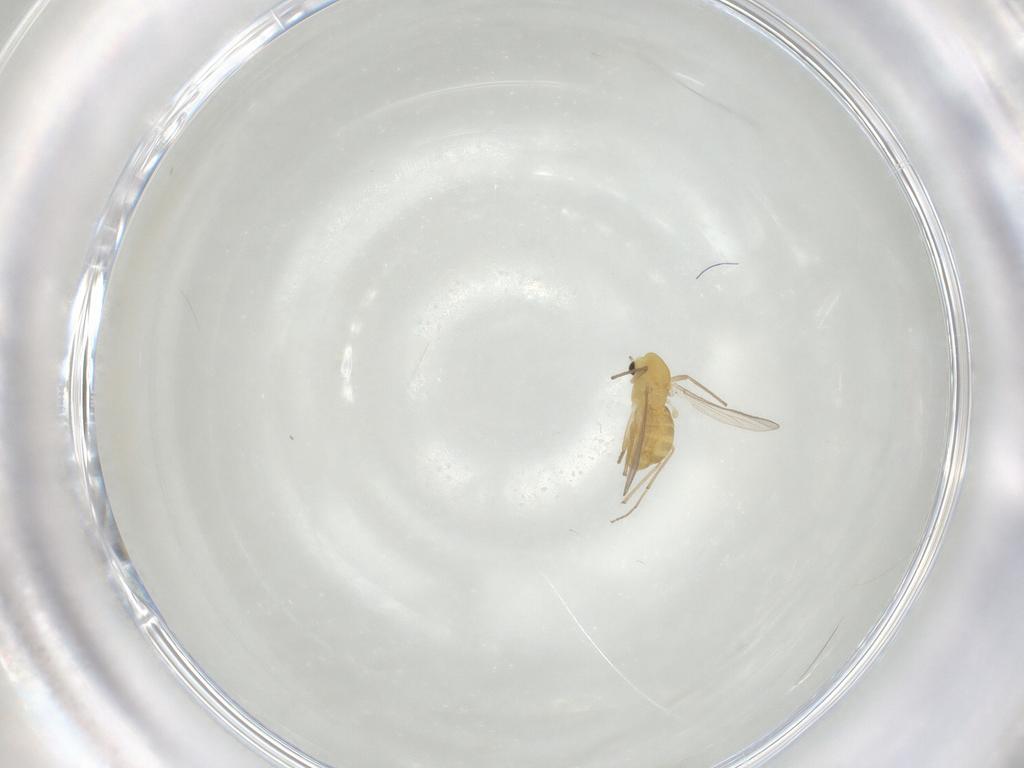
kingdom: Animalia
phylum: Arthropoda
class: Insecta
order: Diptera
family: Chironomidae
